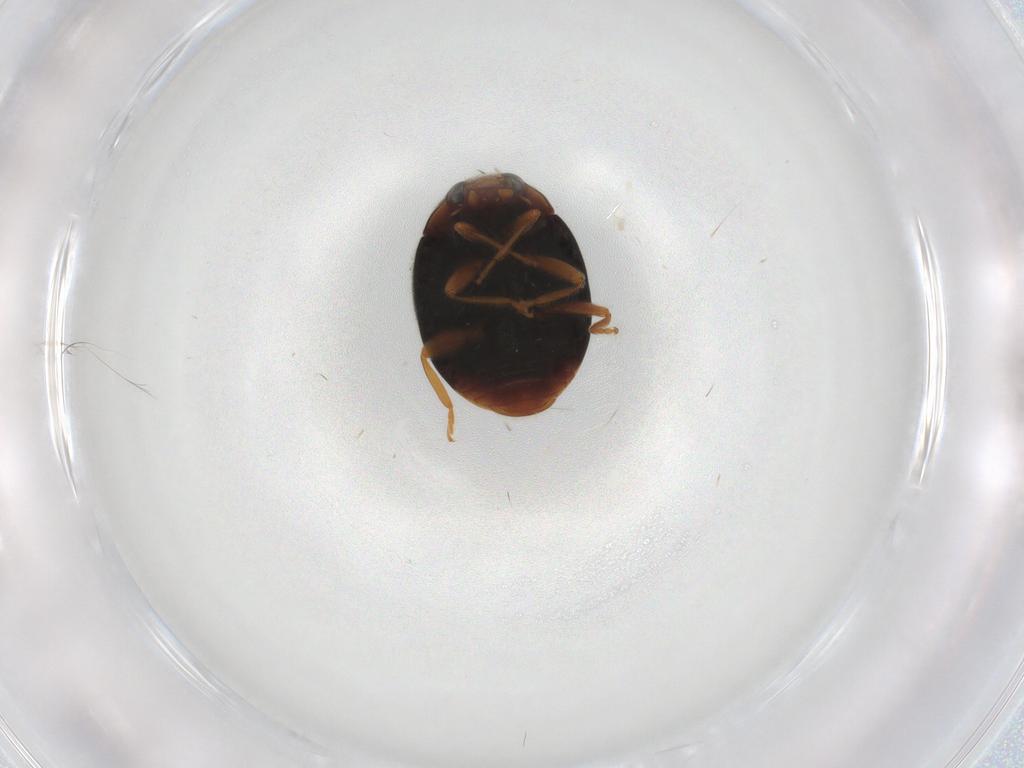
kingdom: Animalia
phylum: Arthropoda
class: Insecta
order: Coleoptera
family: Coccinellidae
